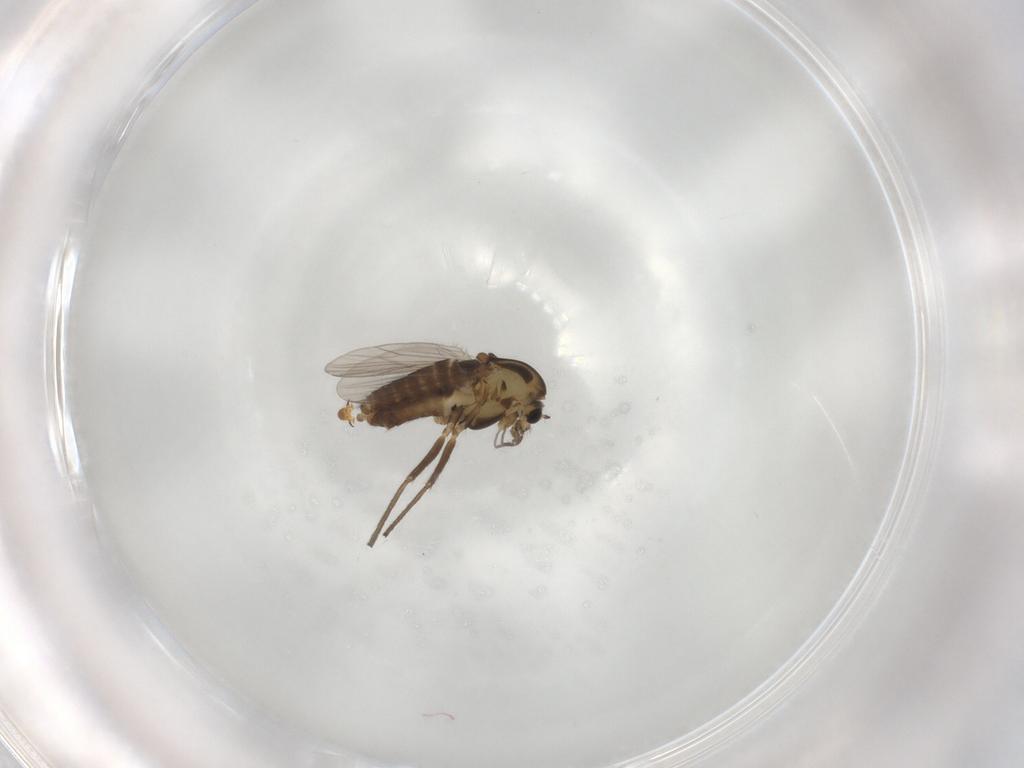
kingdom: Animalia
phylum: Arthropoda
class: Insecta
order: Diptera
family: Chironomidae
